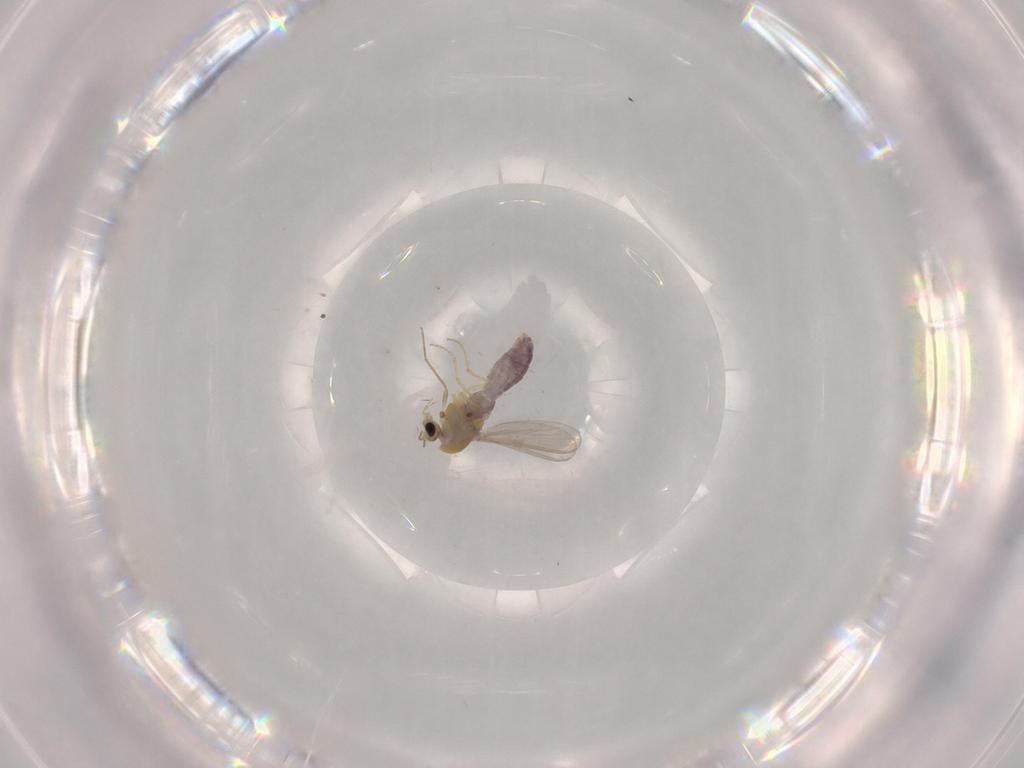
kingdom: Animalia
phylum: Arthropoda
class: Insecta
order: Diptera
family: Chironomidae
